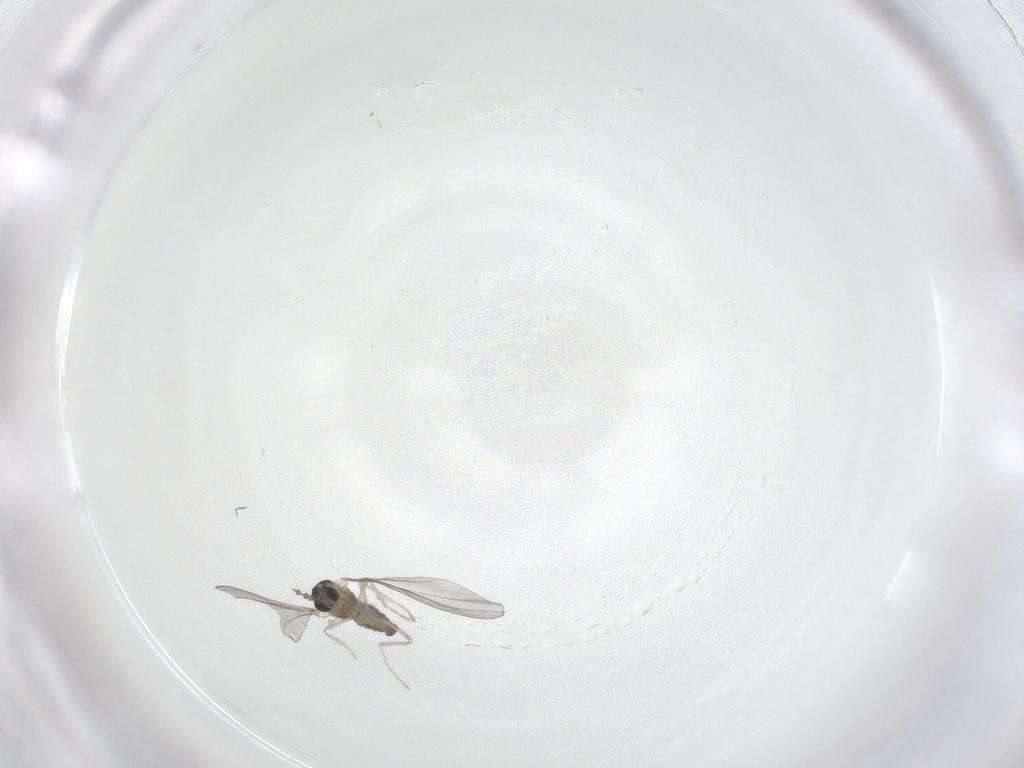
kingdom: Animalia
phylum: Arthropoda
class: Insecta
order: Diptera
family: Cecidomyiidae
